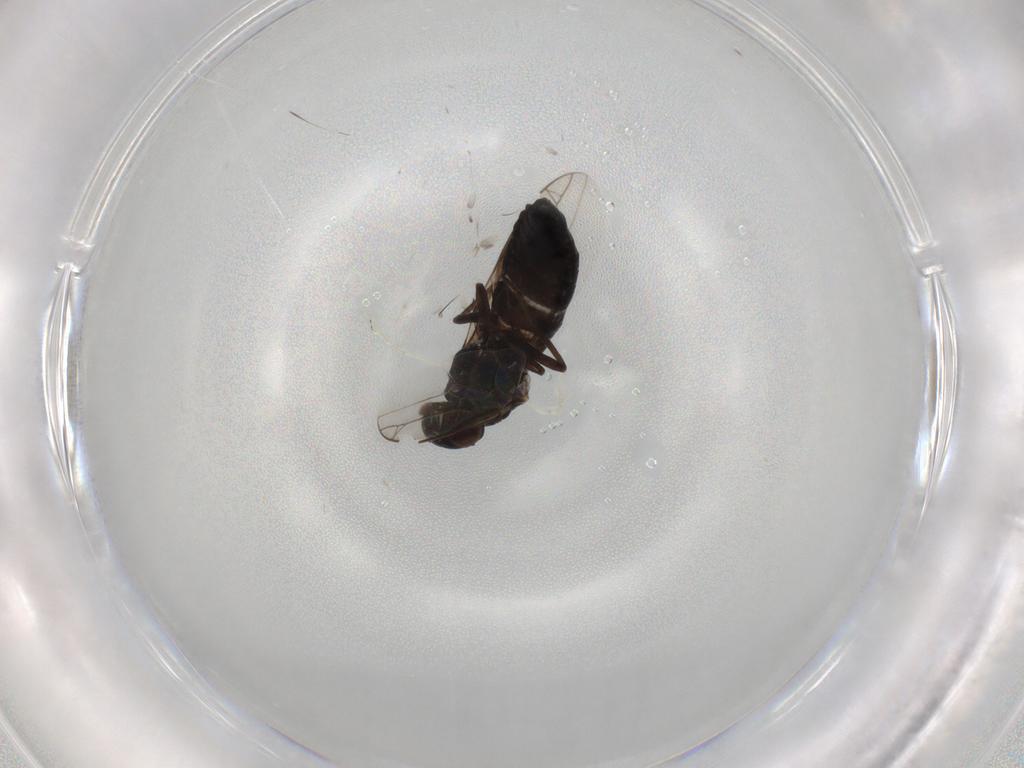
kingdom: Animalia
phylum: Arthropoda
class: Insecta
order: Diptera
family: Scenopinidae
